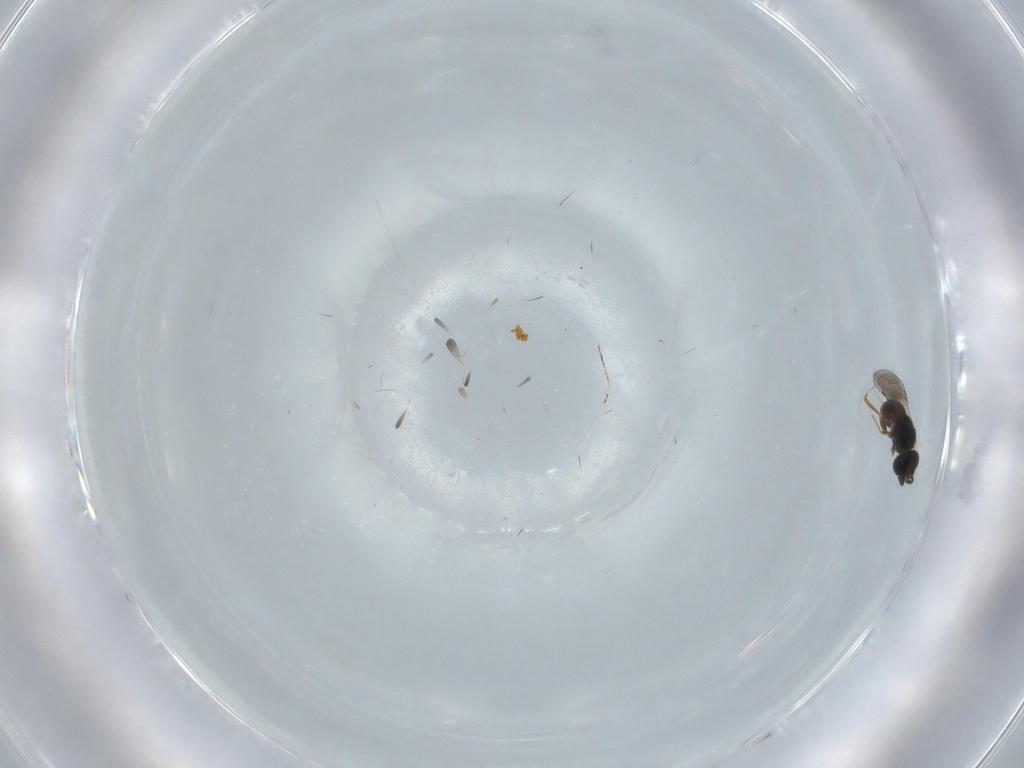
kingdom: Animalia
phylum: Arthropoda
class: Insecta
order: Hymenoptera
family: Scelionidae
